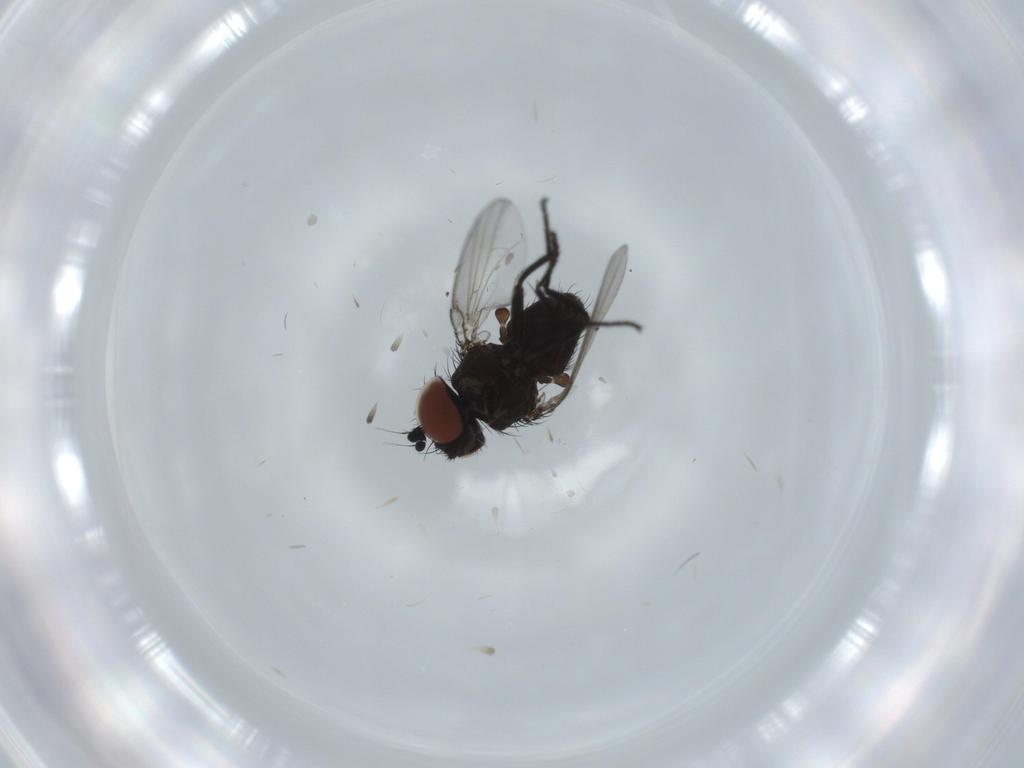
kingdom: Animalia
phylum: Arthropoda
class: Insecta
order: Diptera
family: Milichiidae
